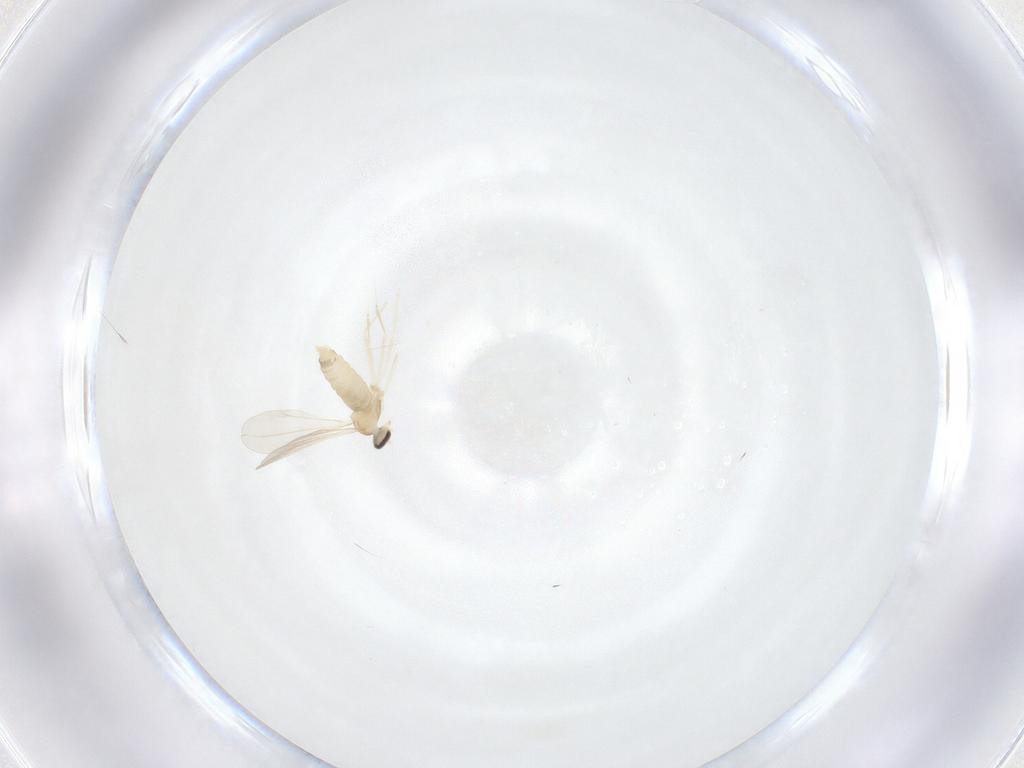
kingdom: Animalia
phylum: Arthropoda
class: Insecta
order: Diptera
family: Cecidomyiidae
